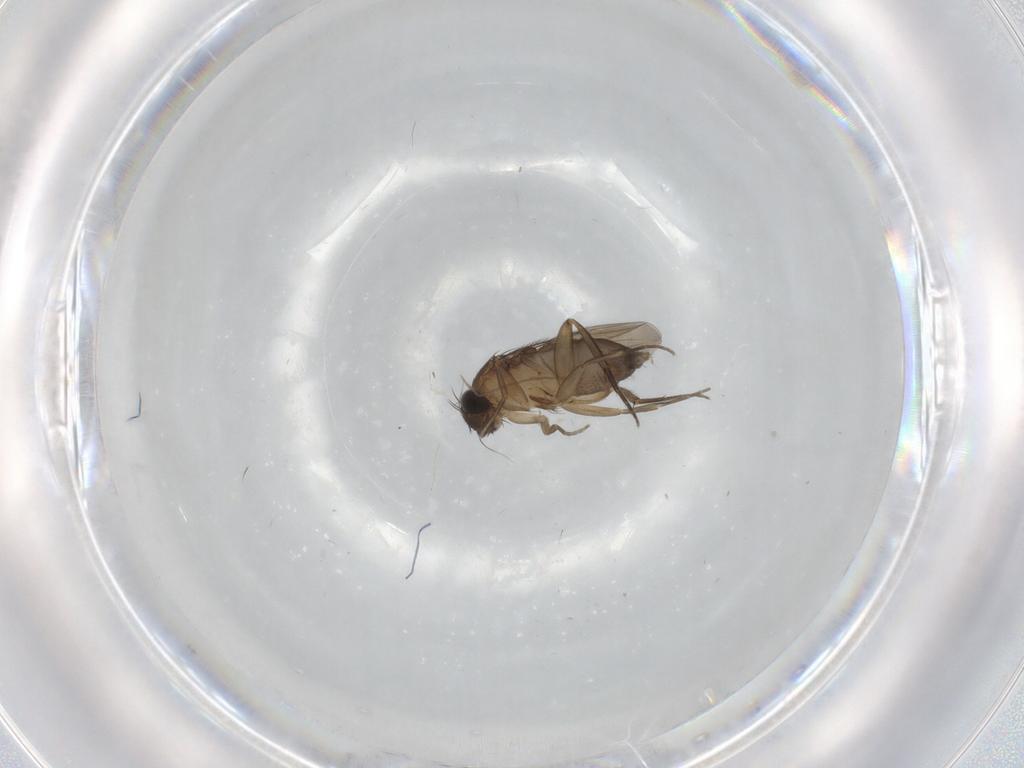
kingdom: Animalia
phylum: Arthropoda
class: Insecta
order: Diptera
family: Phoridae
